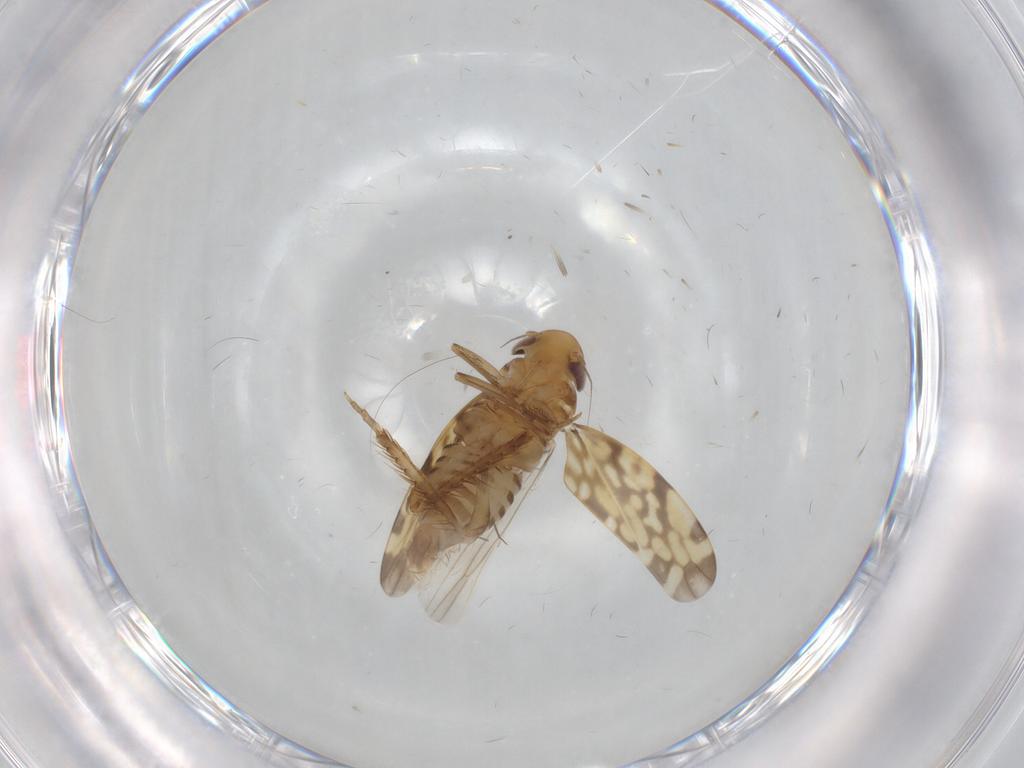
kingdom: Animalia
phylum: Arthropoda
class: Insecta
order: Hemiptera
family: Cicadellidae
